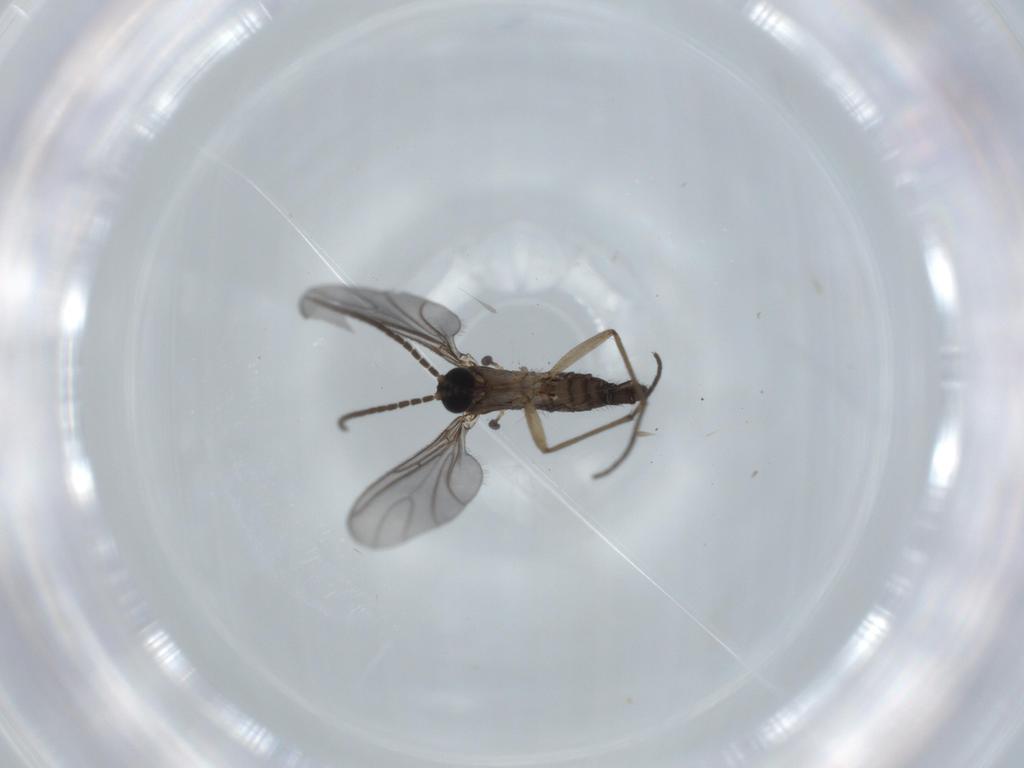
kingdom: Animalia
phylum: Arthropoda
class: Insecta
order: Diptera
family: Sciaridae
